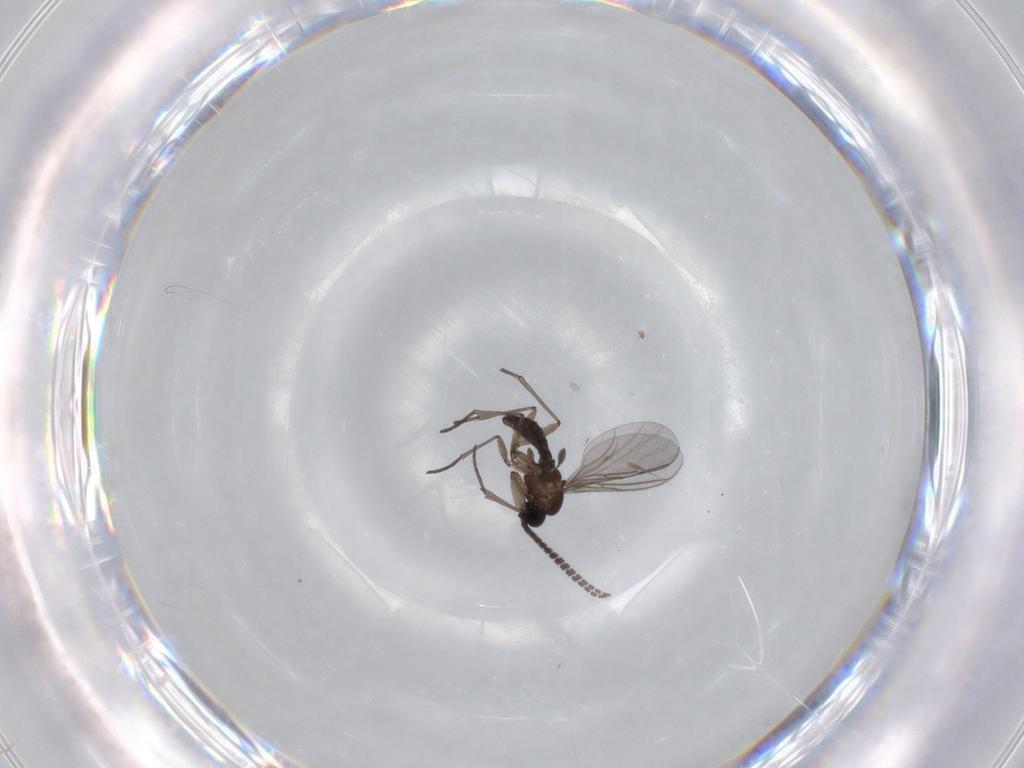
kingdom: Animalia
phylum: Arthropoda
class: Insecta
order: Diptera
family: Sciaridae
